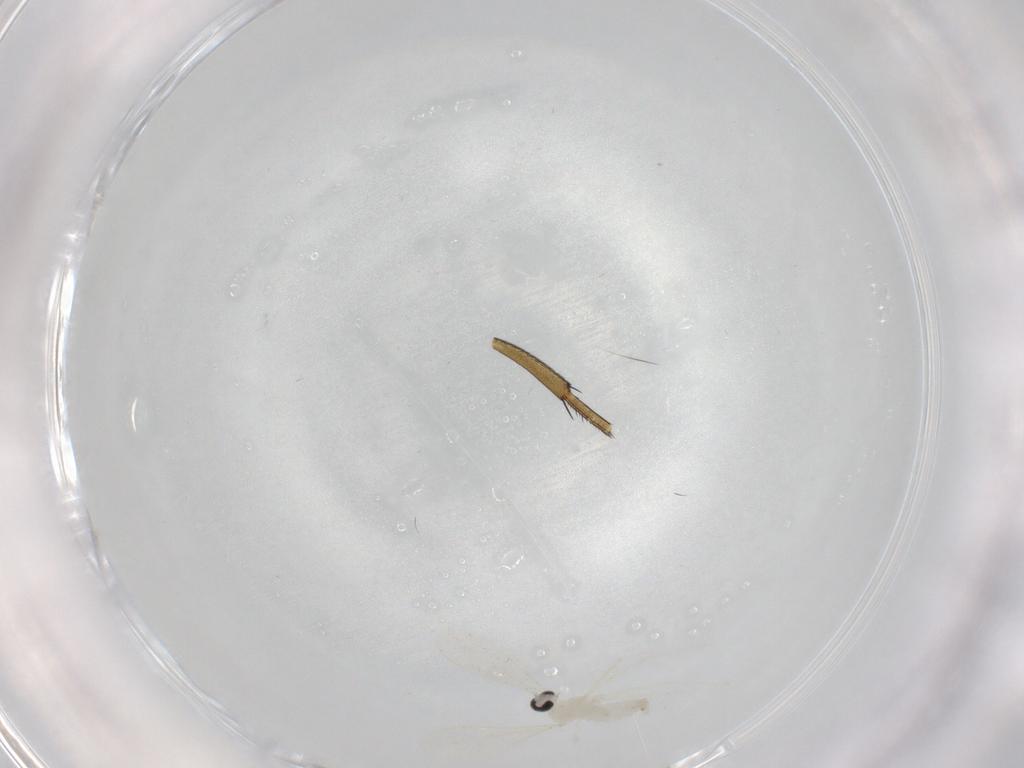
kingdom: Animalia
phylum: Arthropoda
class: Insecta
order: Diptera
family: Phoridae
